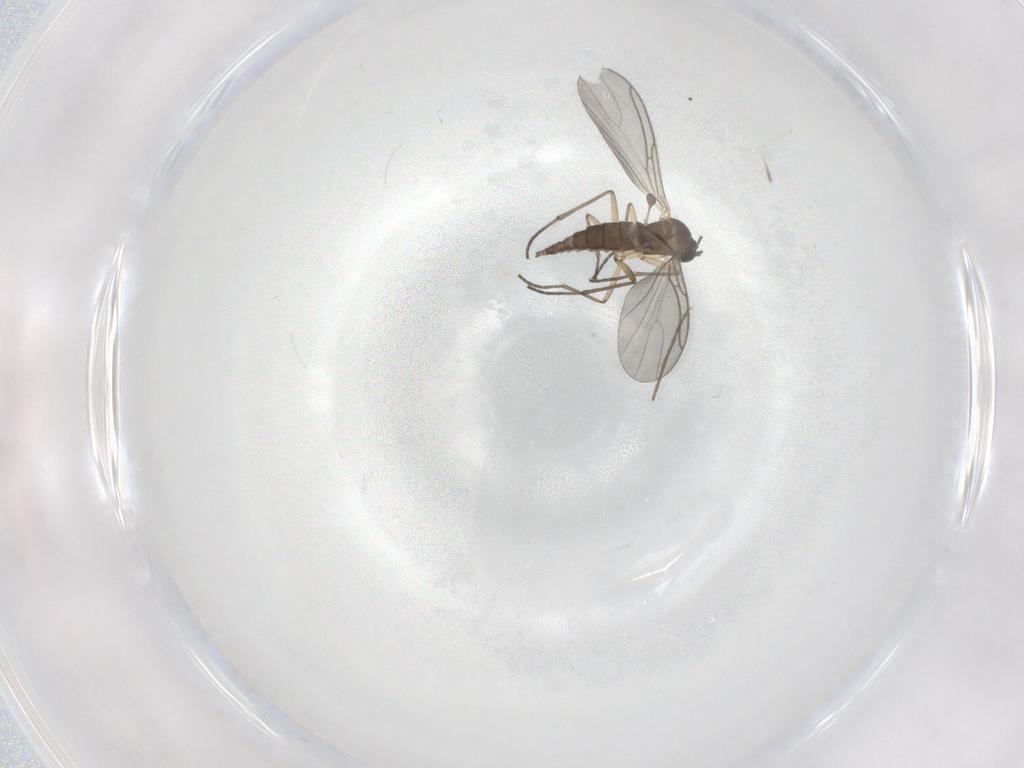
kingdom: Animalia
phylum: Arthropoda
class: Insecta
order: Diptera
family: Sciaridae
